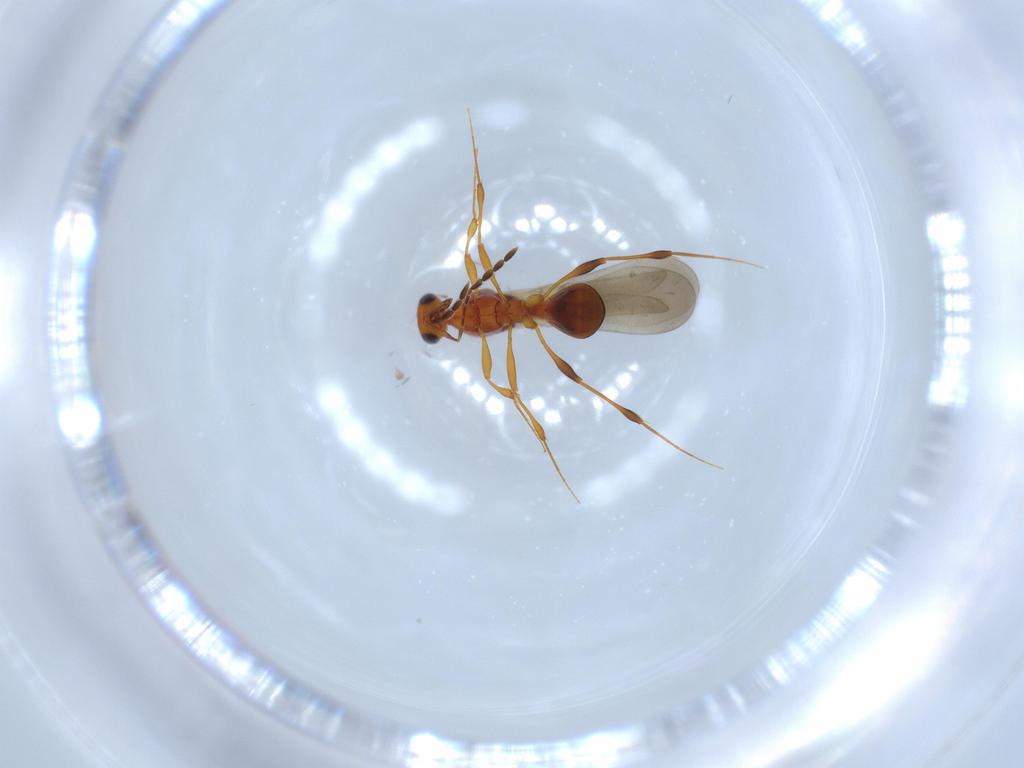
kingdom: Animalia
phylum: Arthropoda
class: Insecta
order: Hymenoptera
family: Platygastridae
